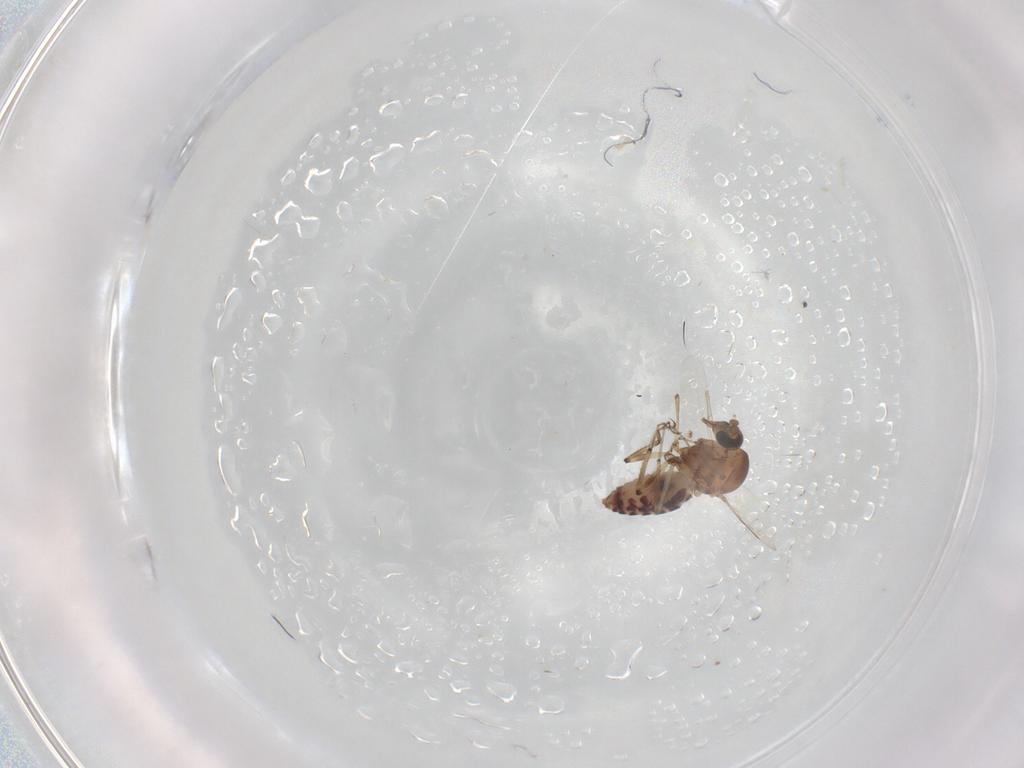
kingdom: Animalia
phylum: Arthropoda
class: Insecta
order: Diptera
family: Ceratopogonidae
